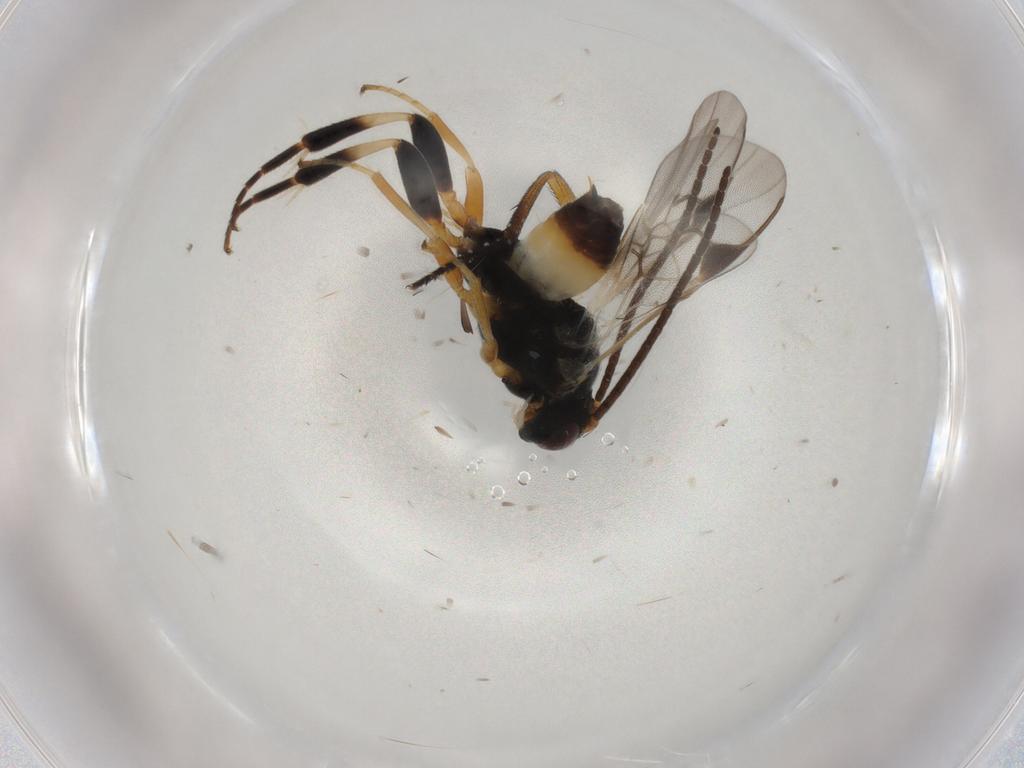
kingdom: Animalia
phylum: Arthropoda
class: Insecta
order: Hymenoptera
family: Braconidae
